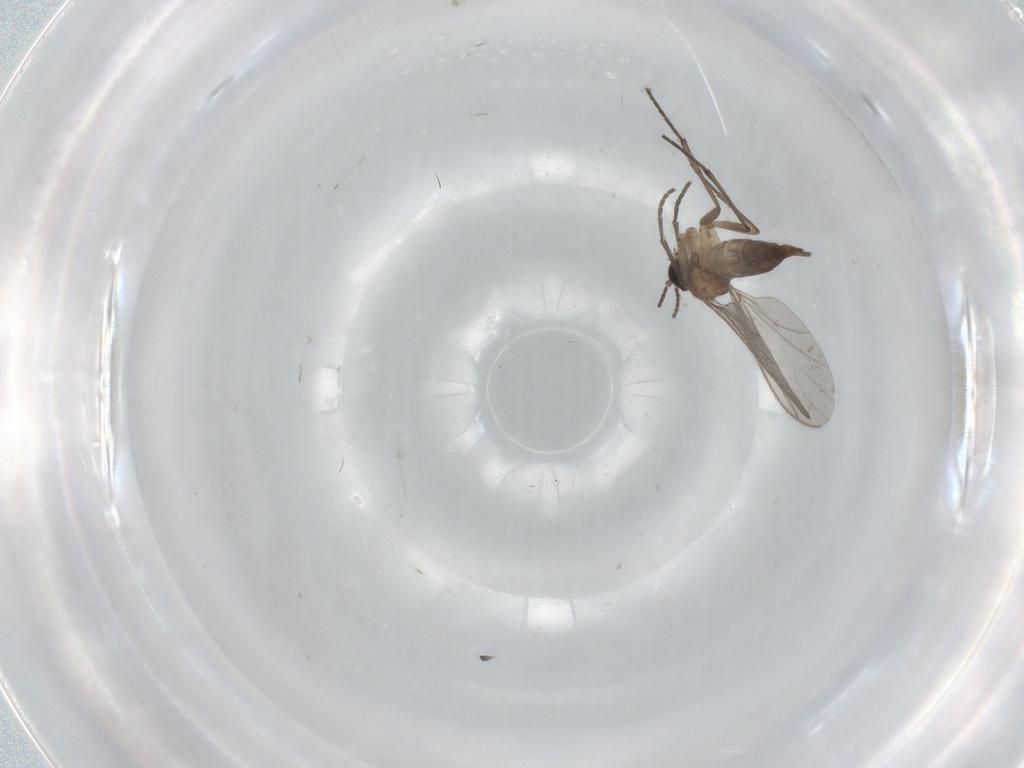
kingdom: Animalia
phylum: Arthropoda
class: Insecta
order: Diptera
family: Sciaridae
